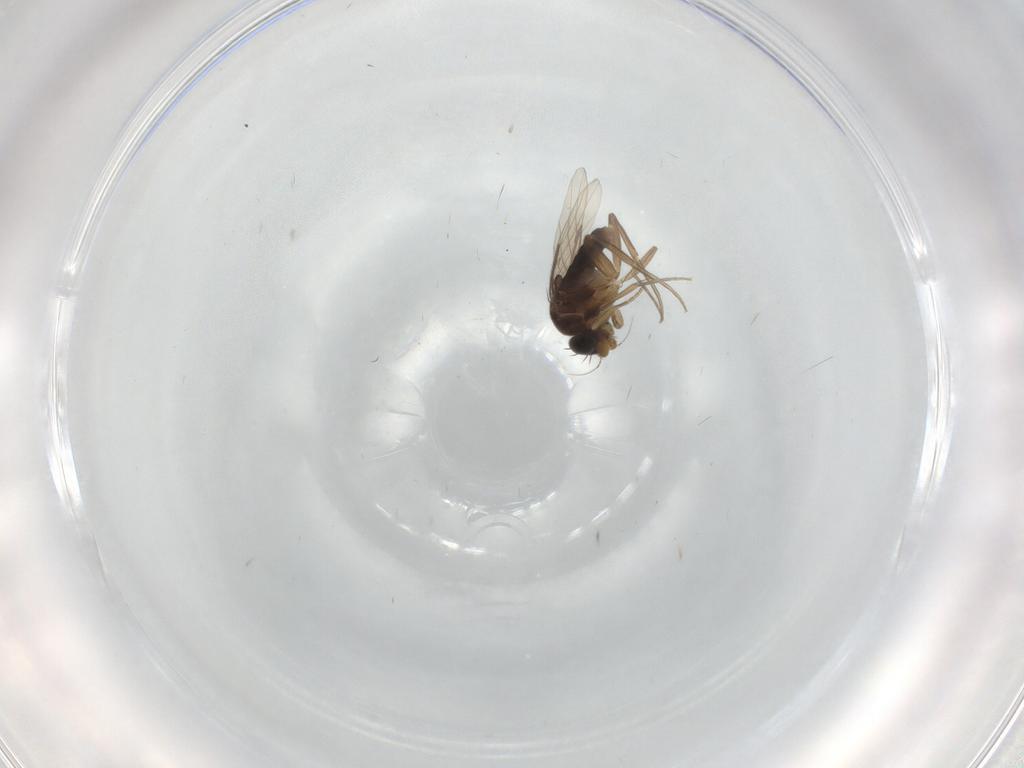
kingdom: Animalia
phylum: Arthropoda
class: Insecta
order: Diptera
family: Phoridae
